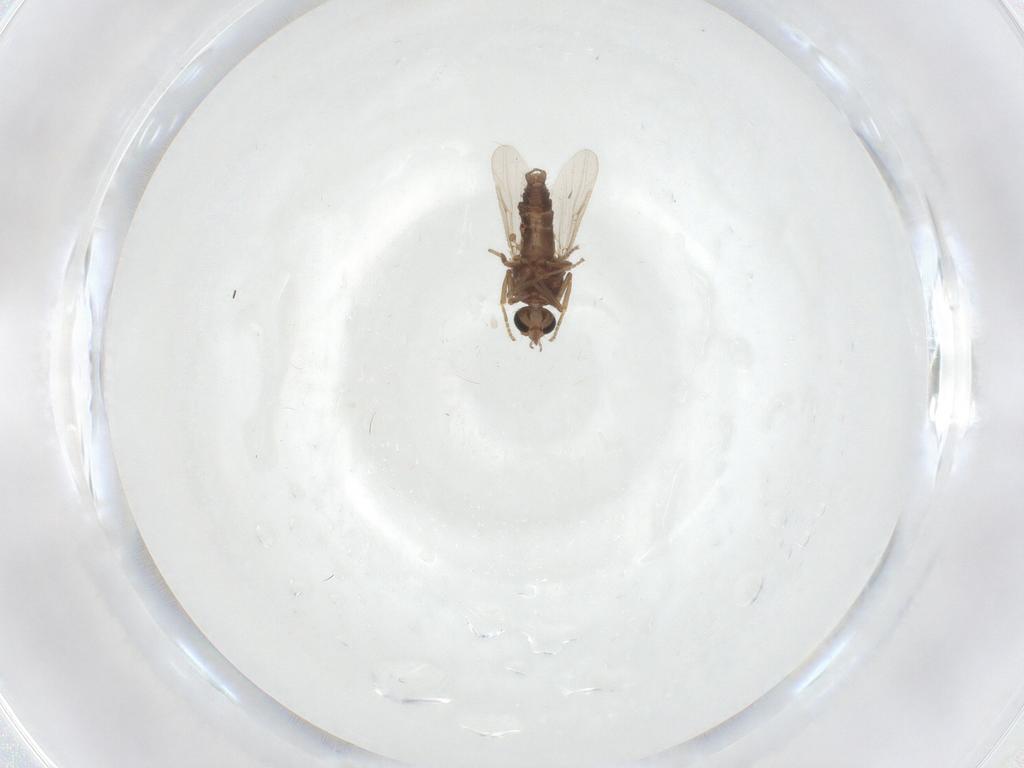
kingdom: Animalia
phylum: Arthropoda
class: Insecta
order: Diptera
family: Ceratopogonidae
